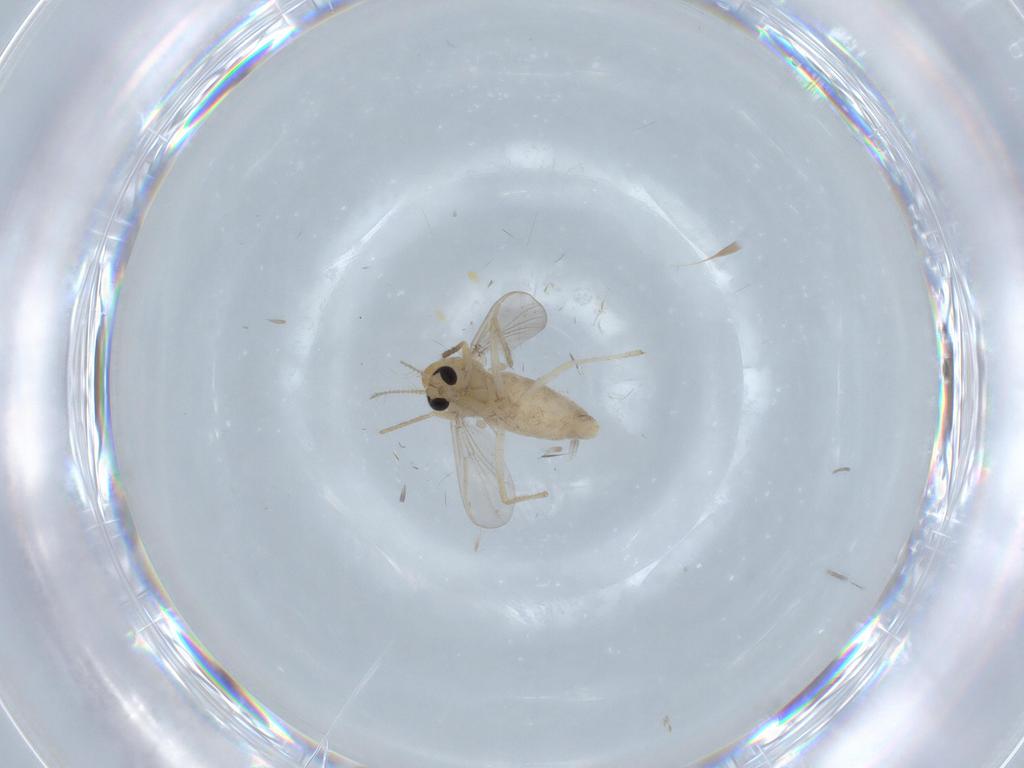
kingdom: Animalia
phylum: Arthropoda
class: Insecta
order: Diptera
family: Chironomidae
